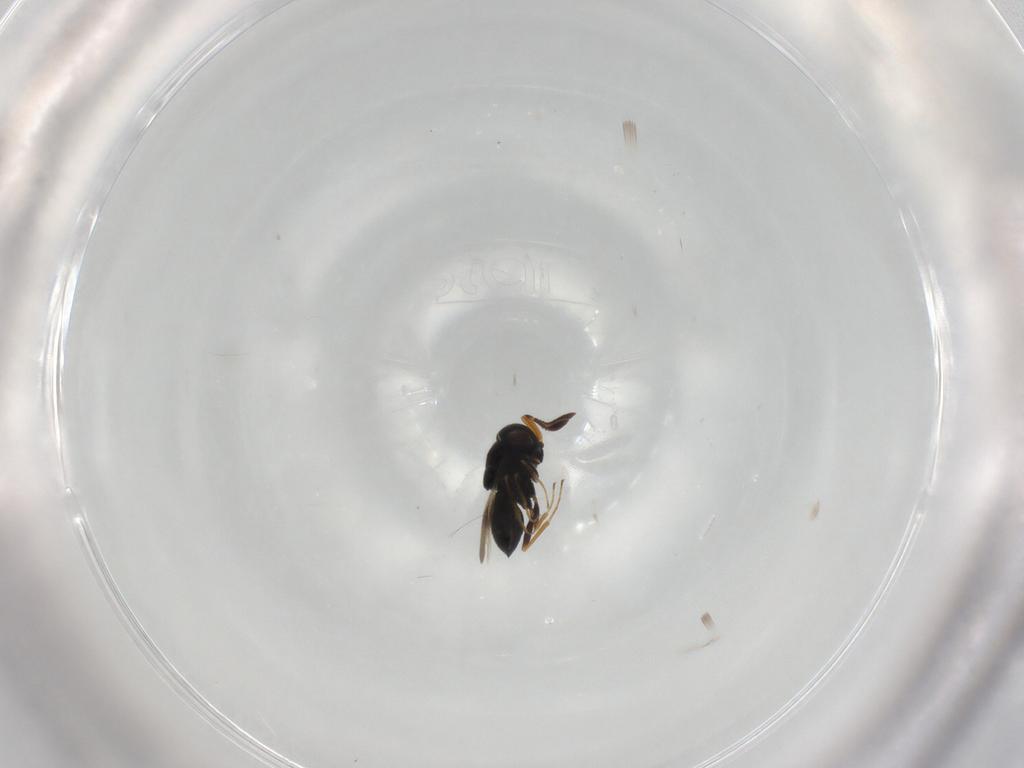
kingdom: Animalia
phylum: Arthropoda
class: Insecta
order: Hymenoptera
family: Scelionidae
